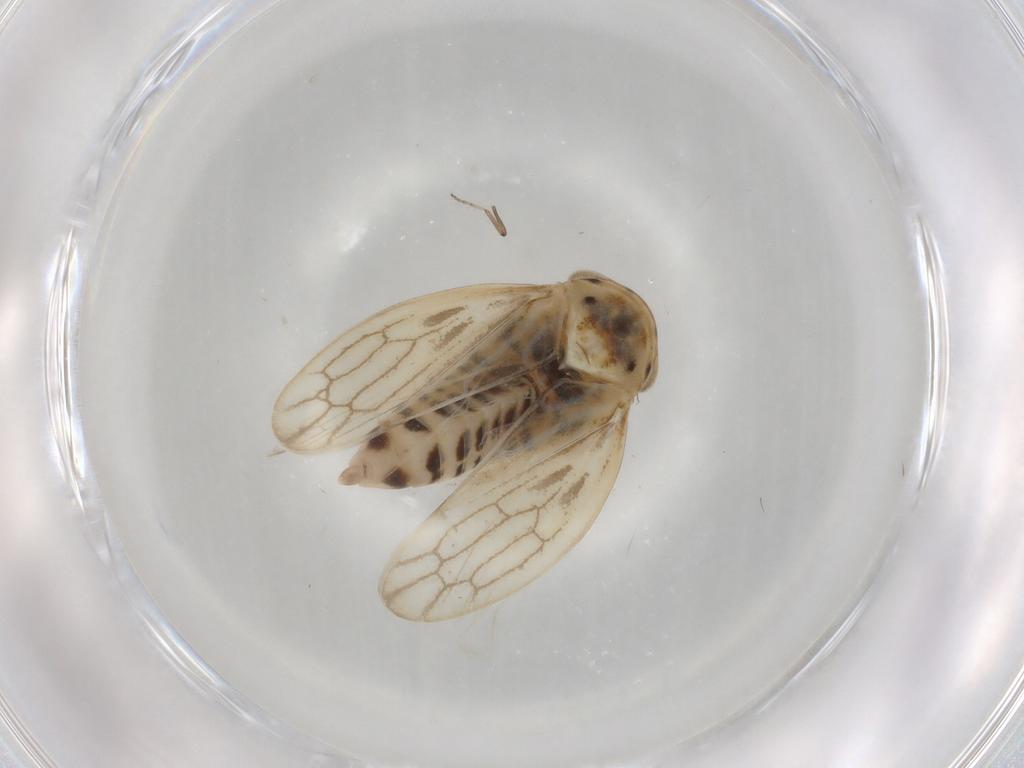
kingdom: Animalia
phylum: Arthropoda
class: Insecta
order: Hemiptera
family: Cicadellidae
